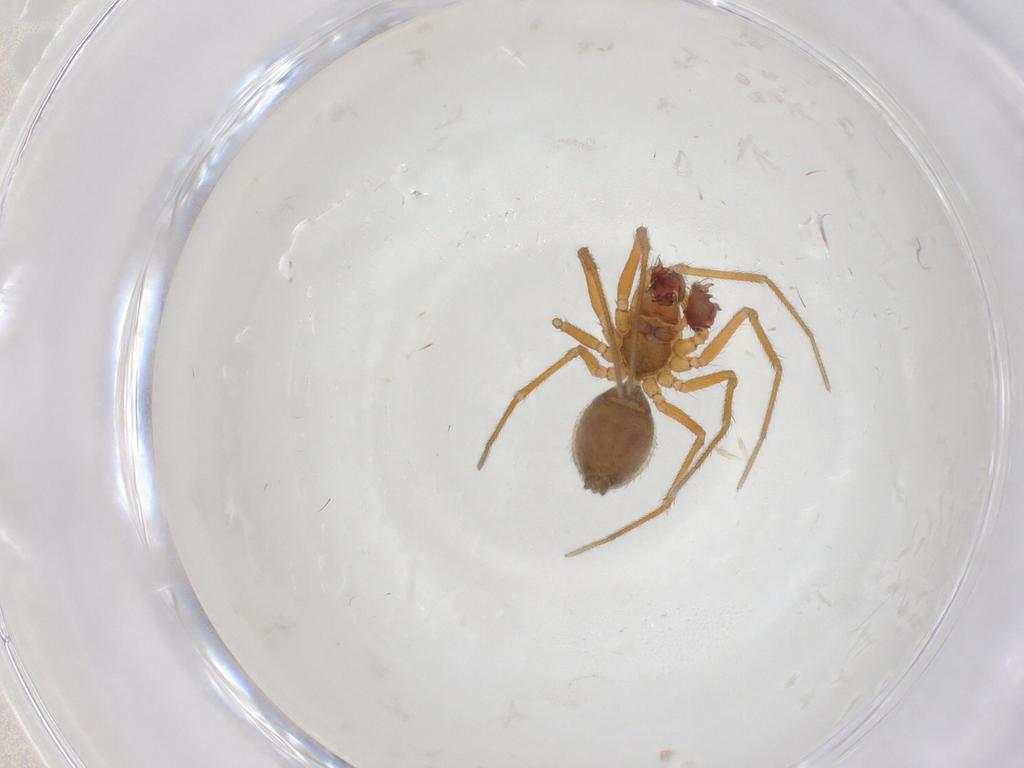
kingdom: Animalia
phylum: Arthropoda
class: Arachnida
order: Araneae
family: Linyphiidae
